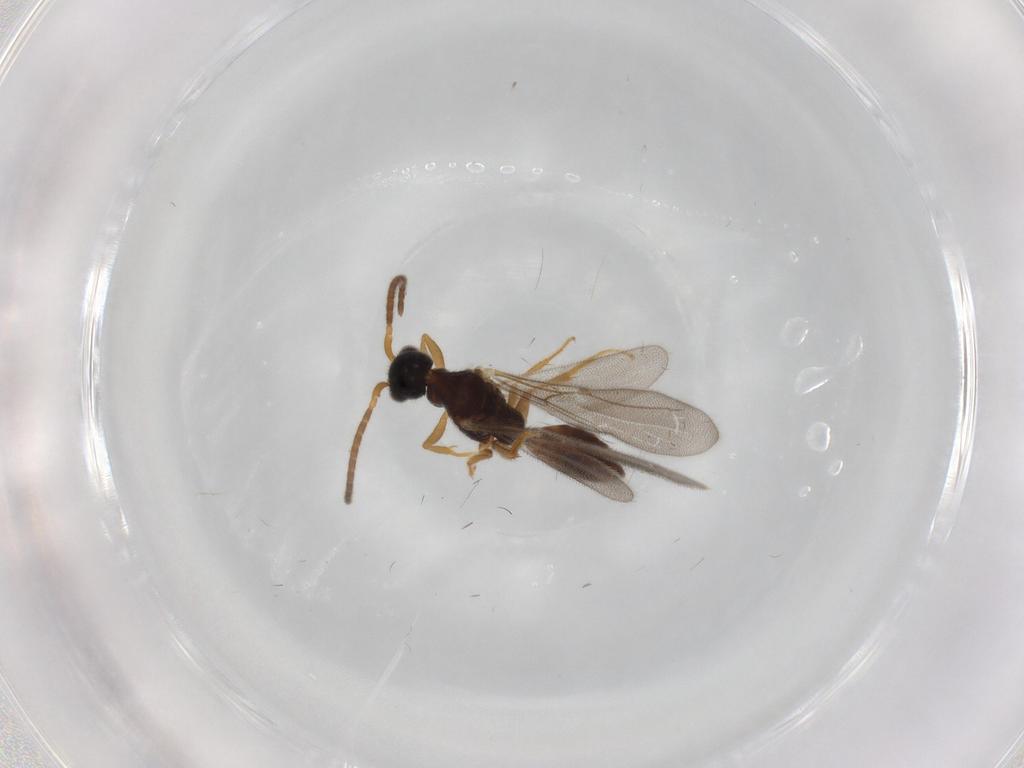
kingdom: Animalia
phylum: Arthropoda
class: Insecta
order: Hymenoptera
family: Bethylidae
